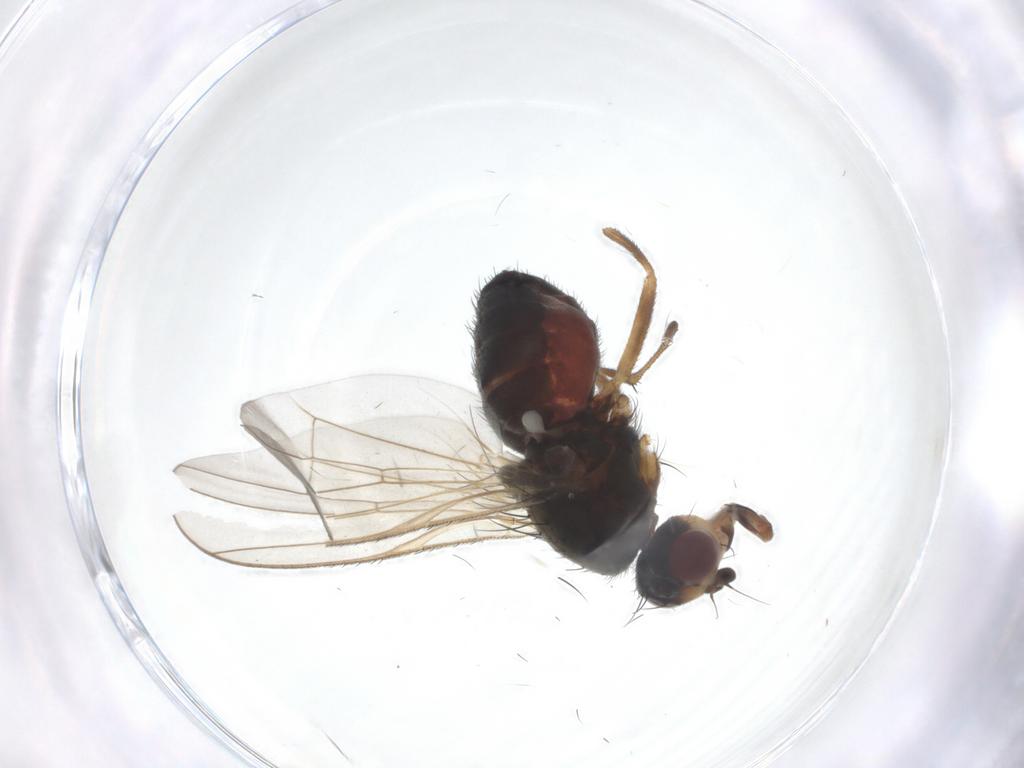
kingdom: Animalia
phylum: Arthropoda
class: Insecta
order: Diptera
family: Heleomyzidae
